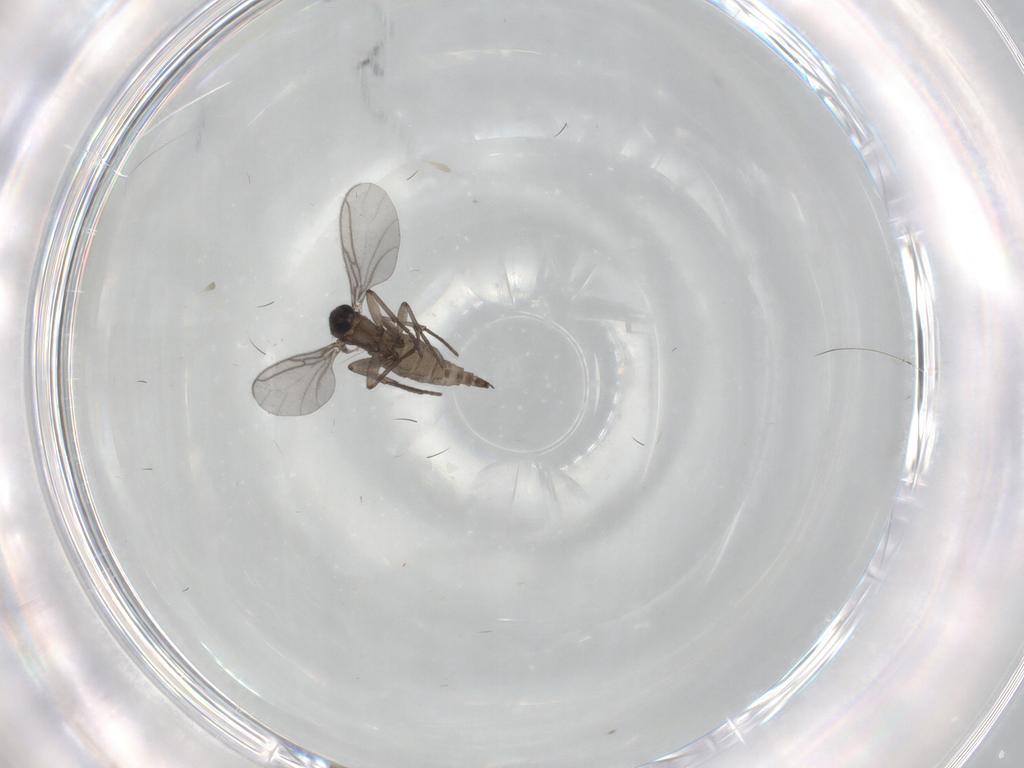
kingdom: Animalia
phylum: Arthropoda
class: Insecta
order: Diptera
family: Sciaridae
